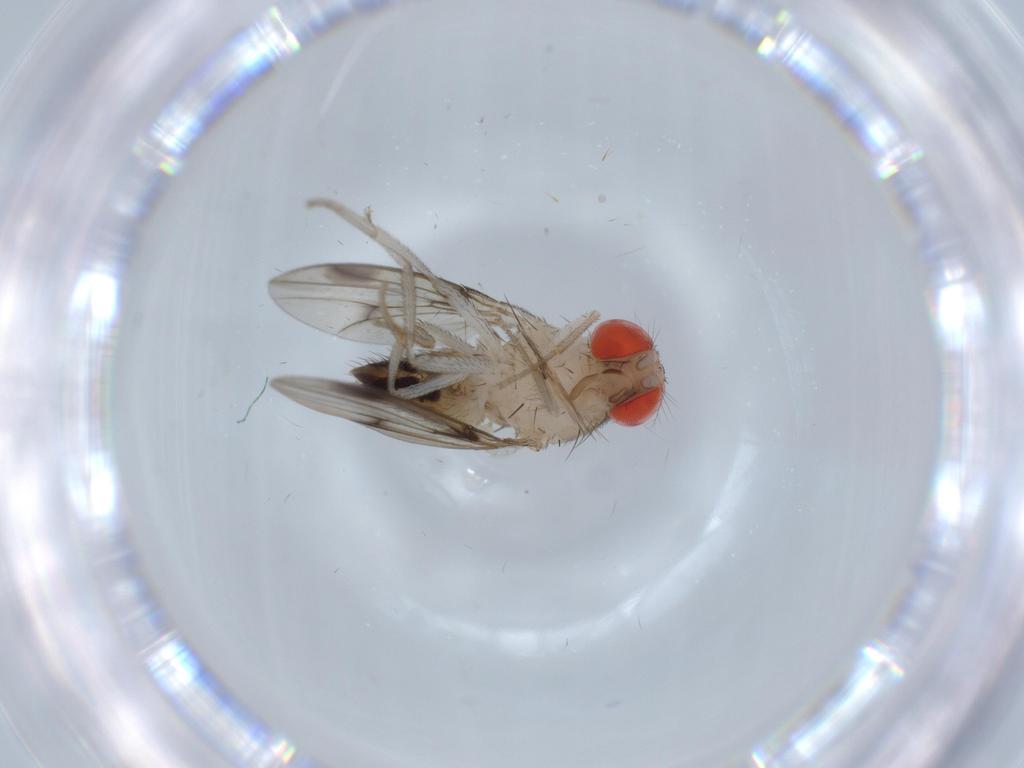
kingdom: Animalia
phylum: Arthropoda
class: Insecta
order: Diptera
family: Drosophilidae
